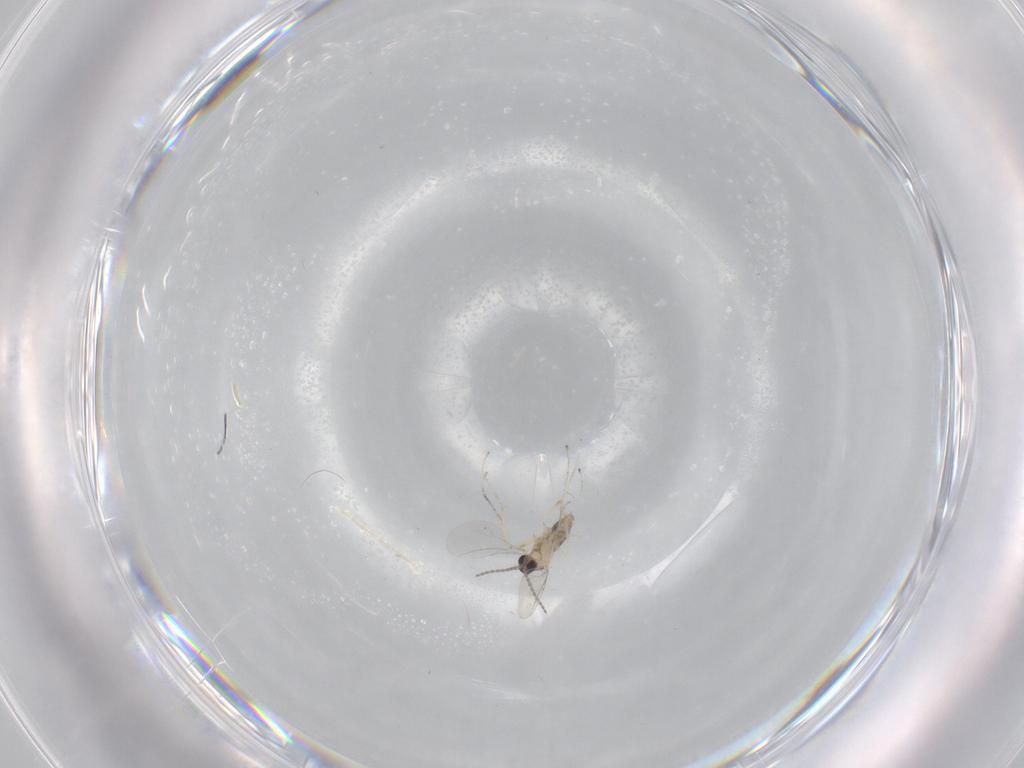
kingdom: Animalia
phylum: Arthropoda
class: Insecta
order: Diptera
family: Cecidomyiidae
